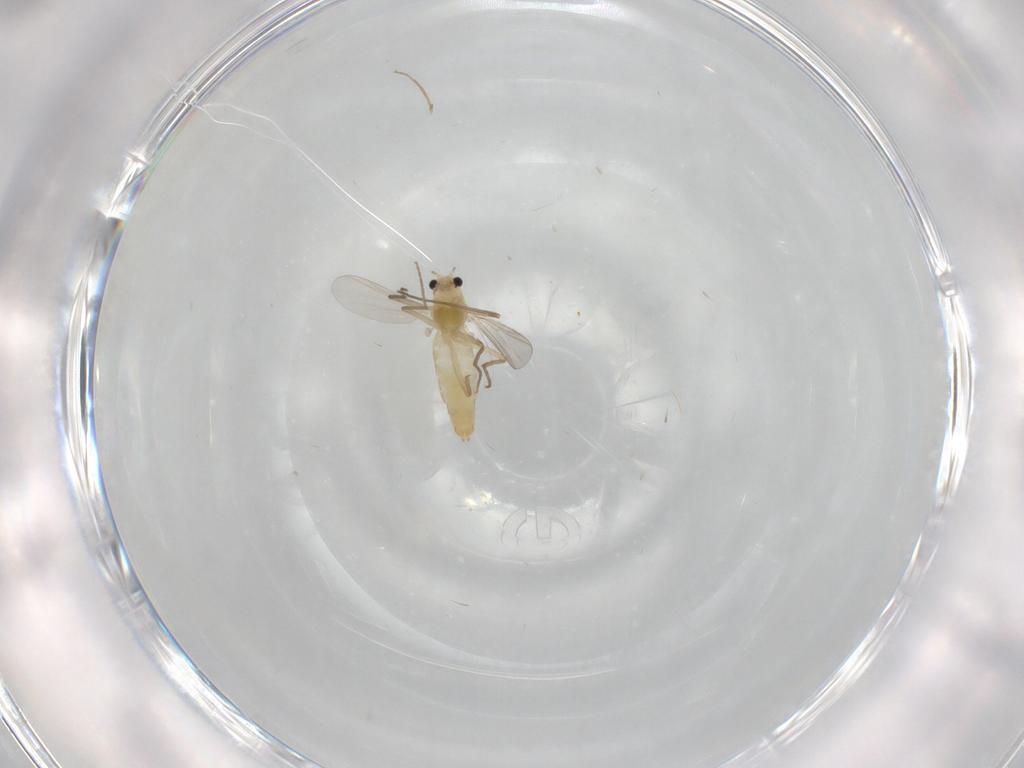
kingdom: Animalia
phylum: Arthropoda
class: Insecta
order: Diptera
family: Chironomidae
